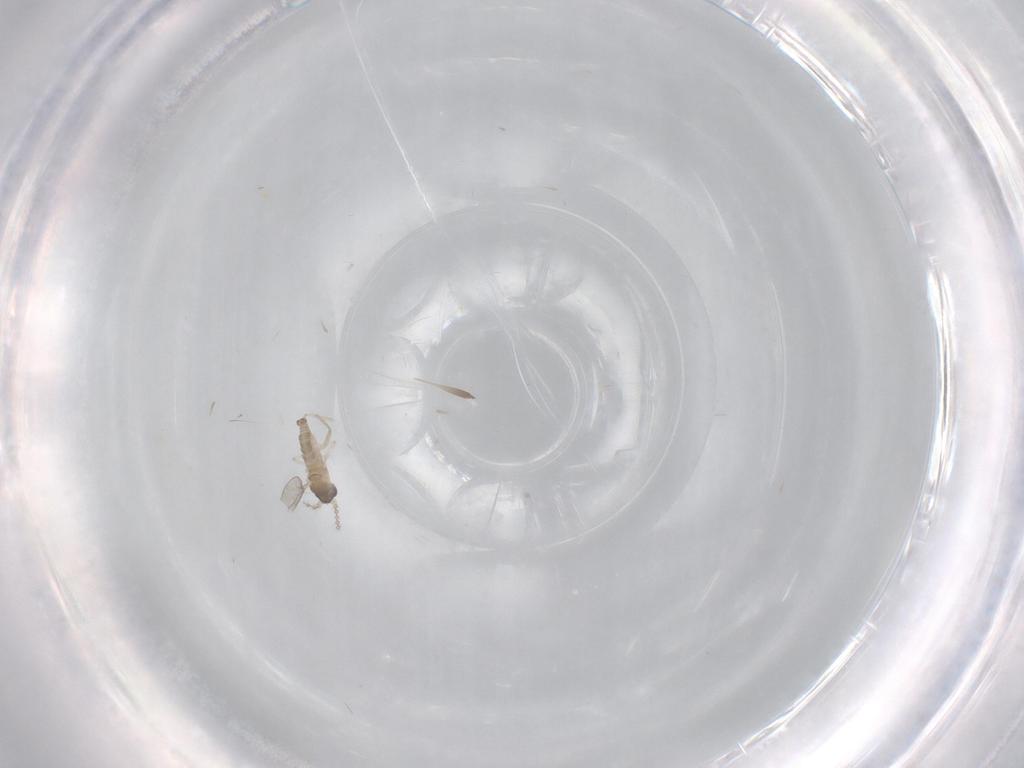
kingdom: Animalia
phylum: Arthropoda
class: Insecta
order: Diptera
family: Cecidomyiidae
